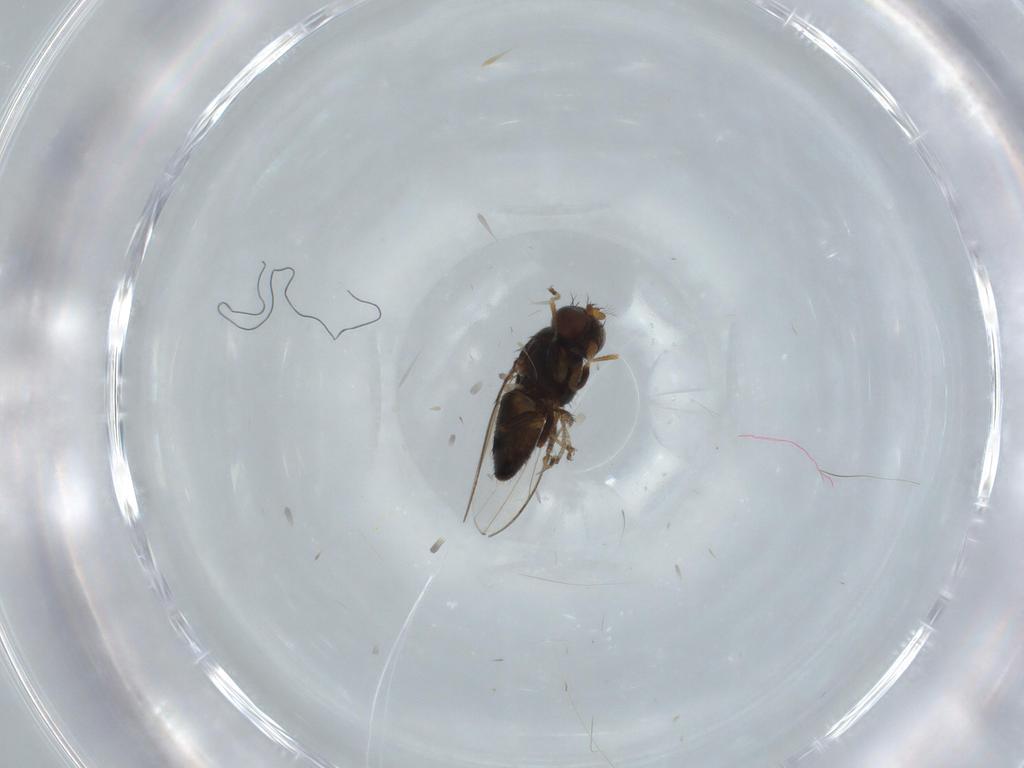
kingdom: Animalia
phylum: Arthropoda
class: Insecta
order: Diptera
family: Ephydridae
